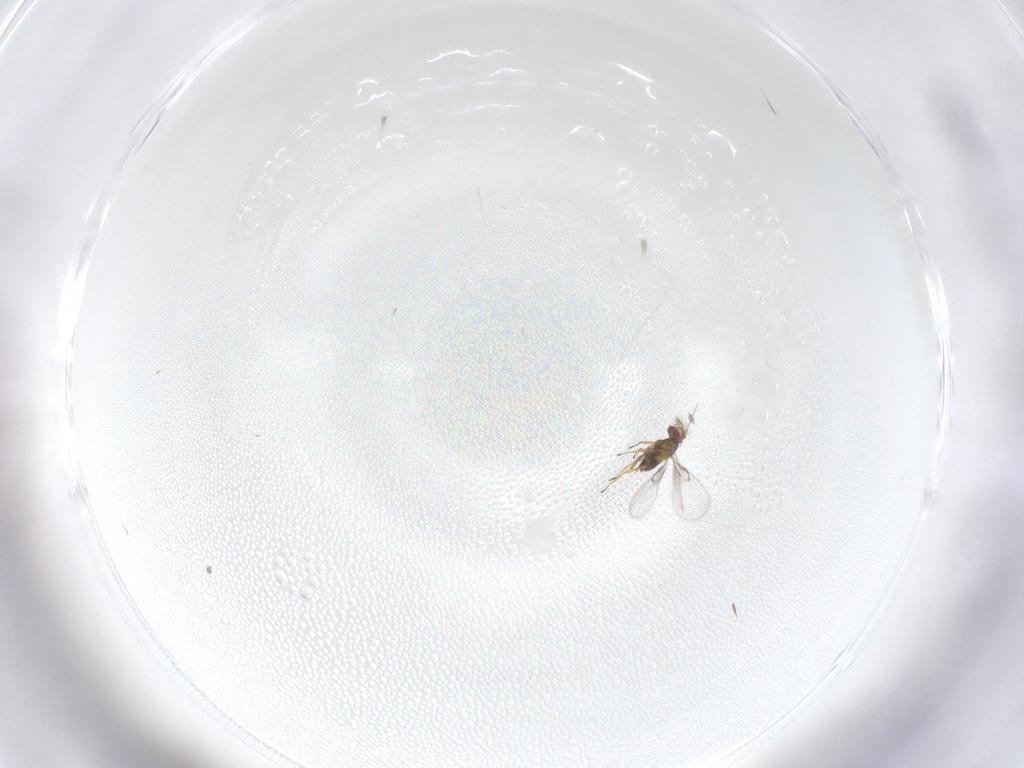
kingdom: Animalia
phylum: Arthropoda
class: Insecta
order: Hymenoptera
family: Trichogrammatidae
